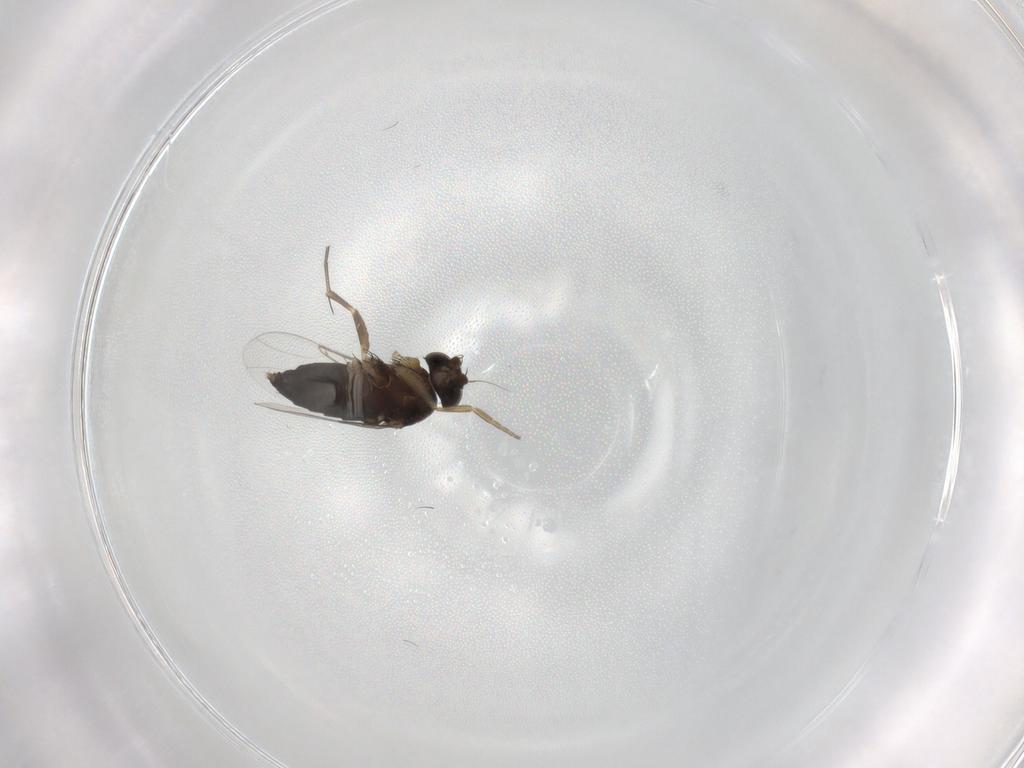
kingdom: Animalia
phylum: Arthropoda
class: Insecta
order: Diptera
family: Phoridae
